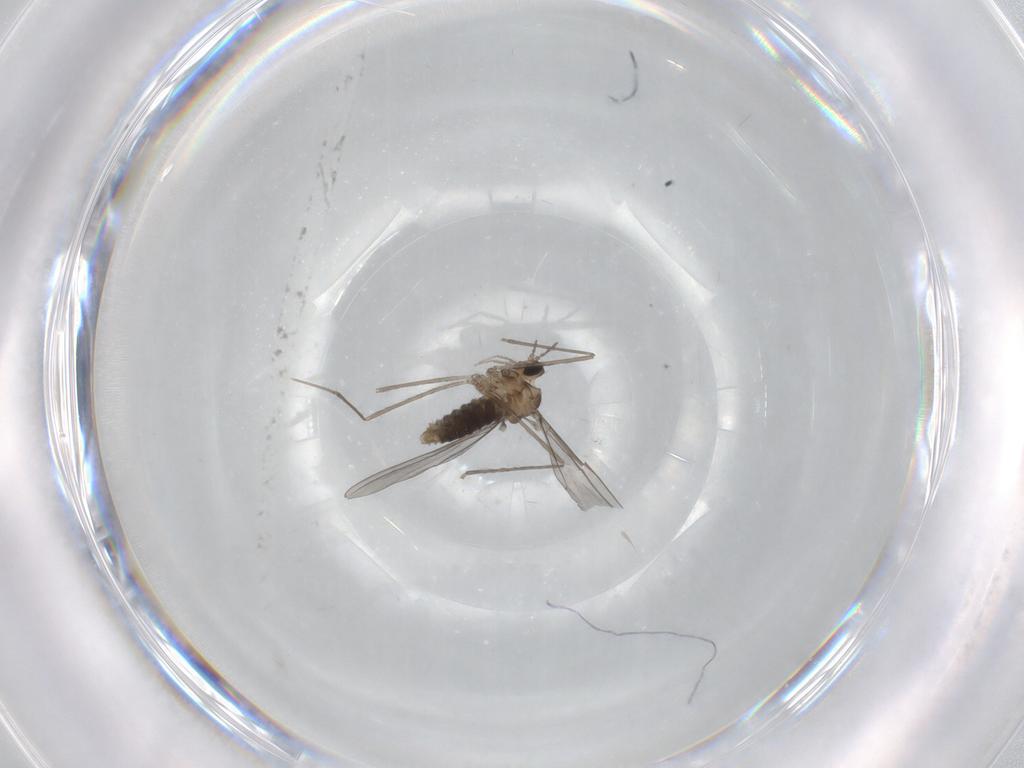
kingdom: Animalia
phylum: Arthropoda
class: Insecta
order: Diptera
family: Cecidomyiidae
